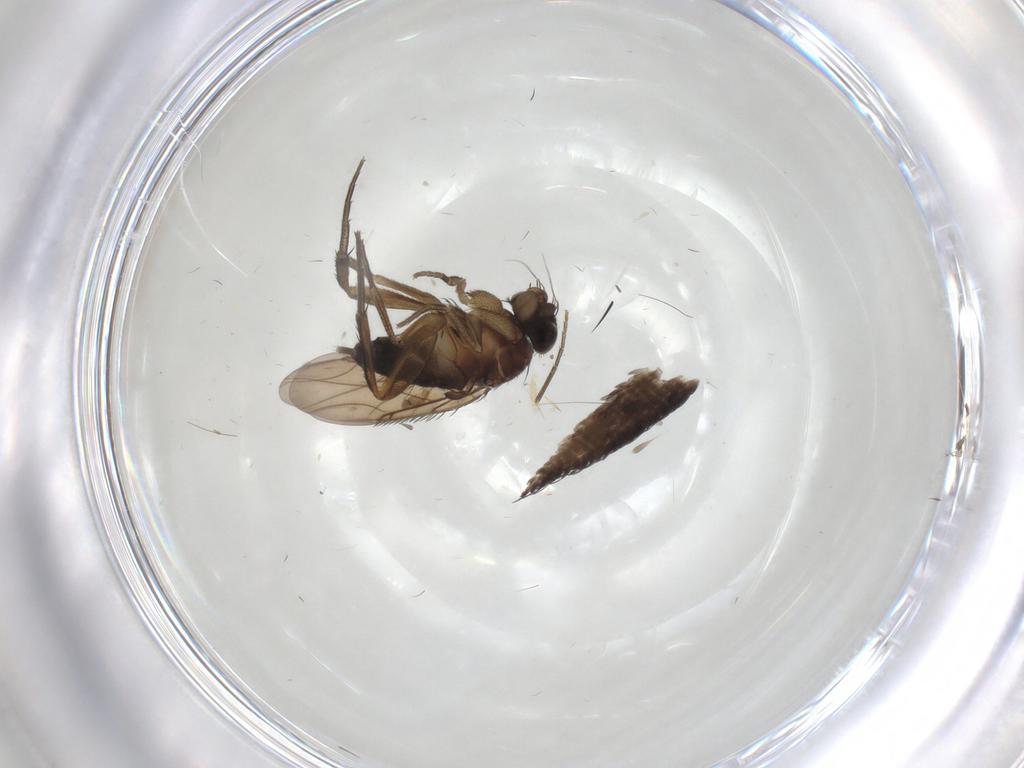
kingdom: Animalia
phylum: Arthropoda
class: Insecta
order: Diptera
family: Phoridae
